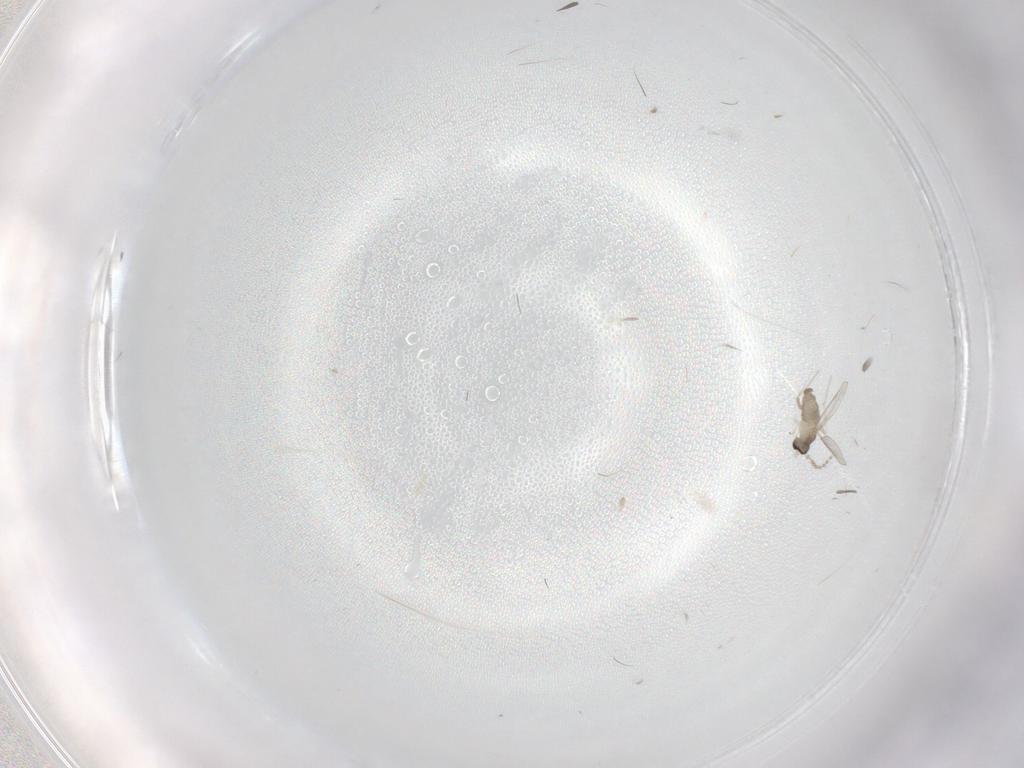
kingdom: Animalia
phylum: Arthropoda
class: Insecta
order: Diptera
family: Cecidomyiidae
